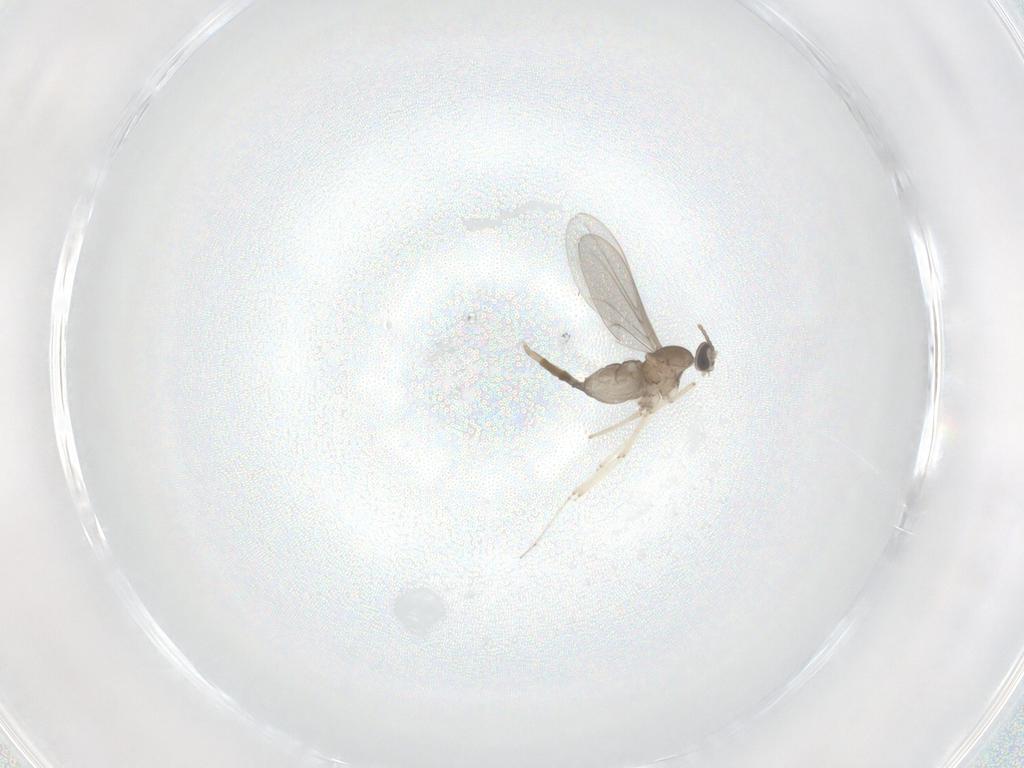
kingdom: Animalia
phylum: Arthropoda
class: Insecta
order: Diptera
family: Cecidomyiidae
